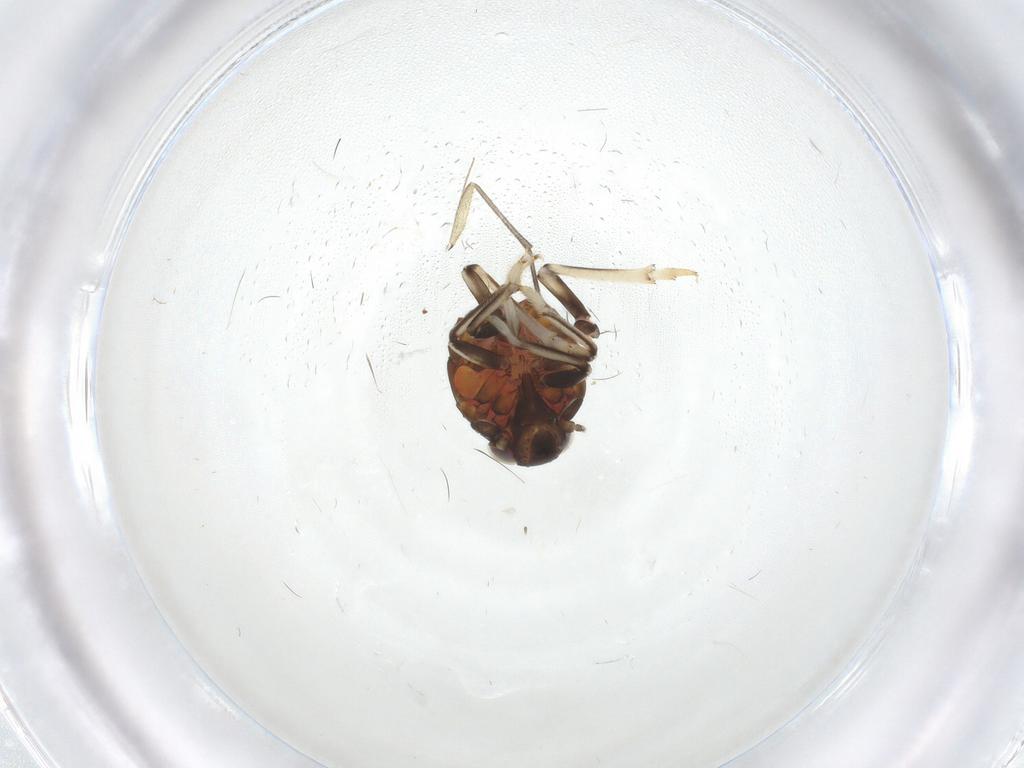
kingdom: Animalia
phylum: Arthropoda
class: Insecta
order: Hemiptera
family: Issidae
